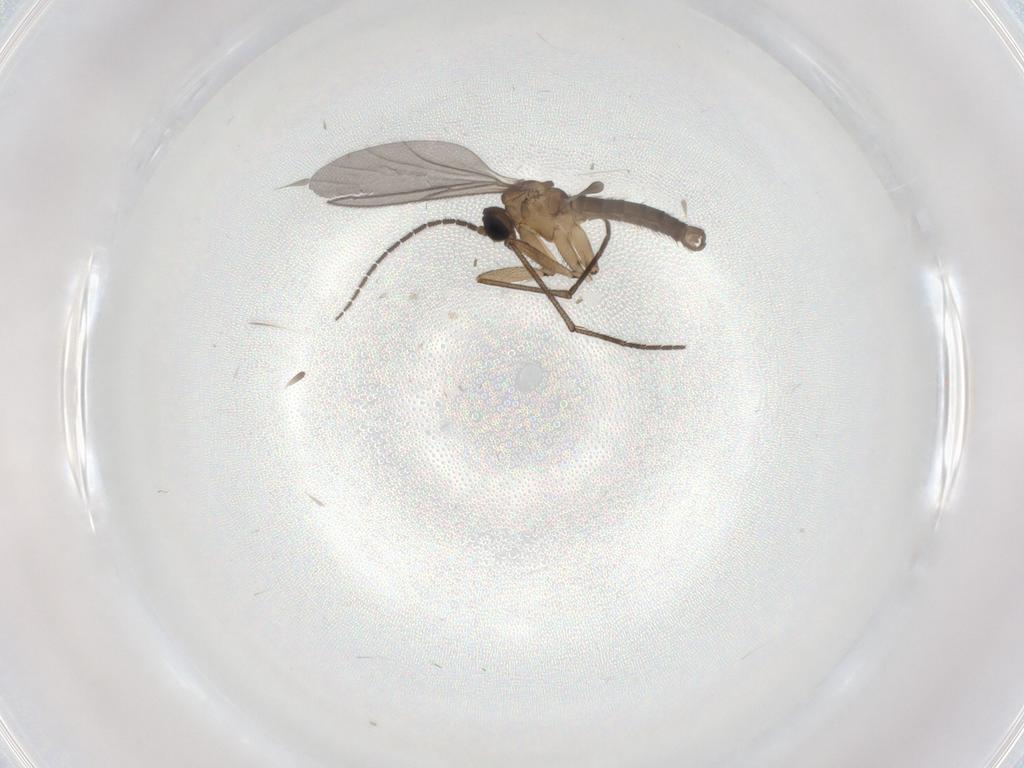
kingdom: Animalia
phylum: Arthropoda
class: Insecta
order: Diptera
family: Sciaridae
